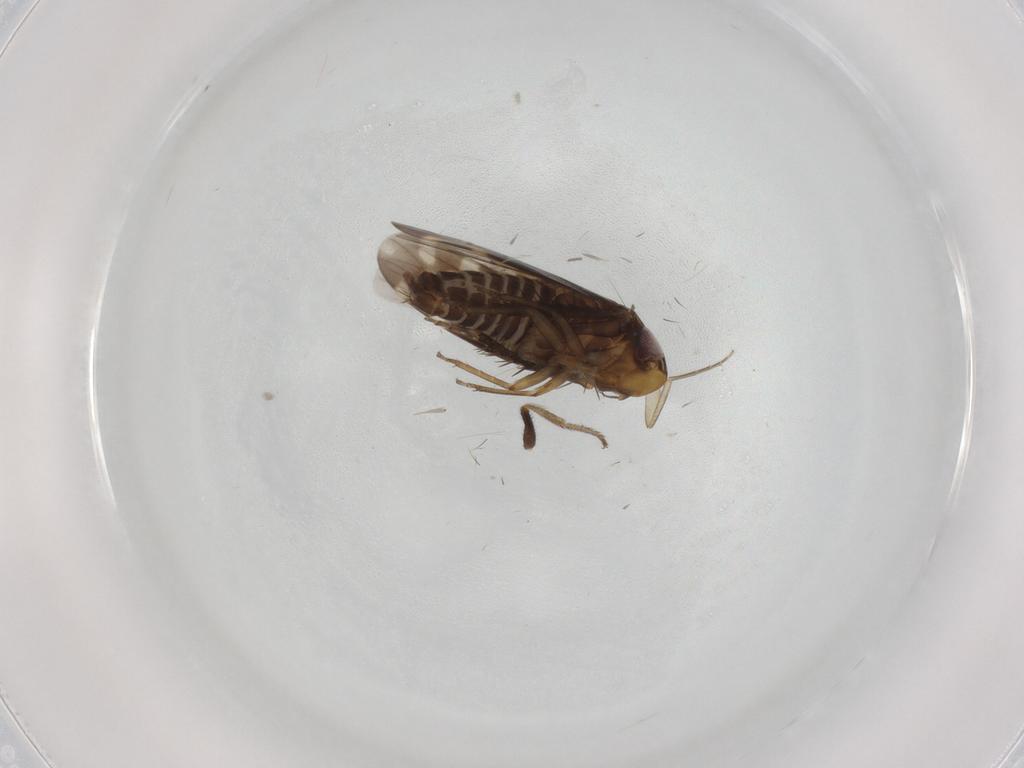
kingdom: Animalia
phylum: Arthropoda
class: Insecta
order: Hemiptera
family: Cicadellidae
